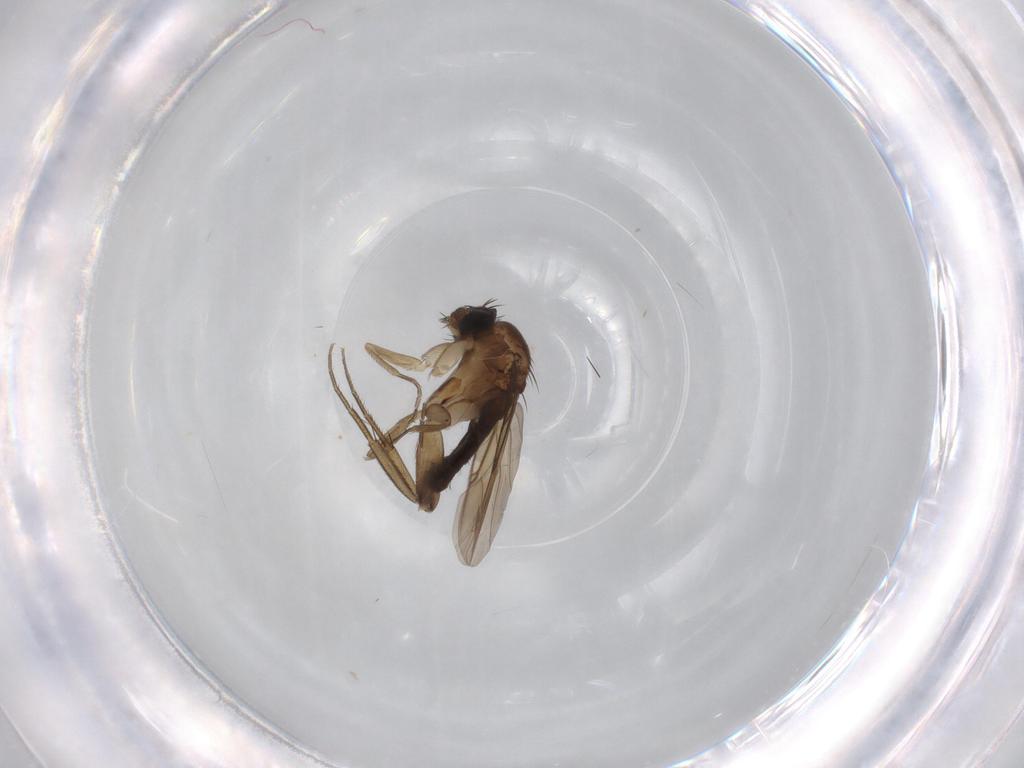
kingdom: Animalia
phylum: Arthropoda
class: Insecta
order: Diptera
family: Phoridae
